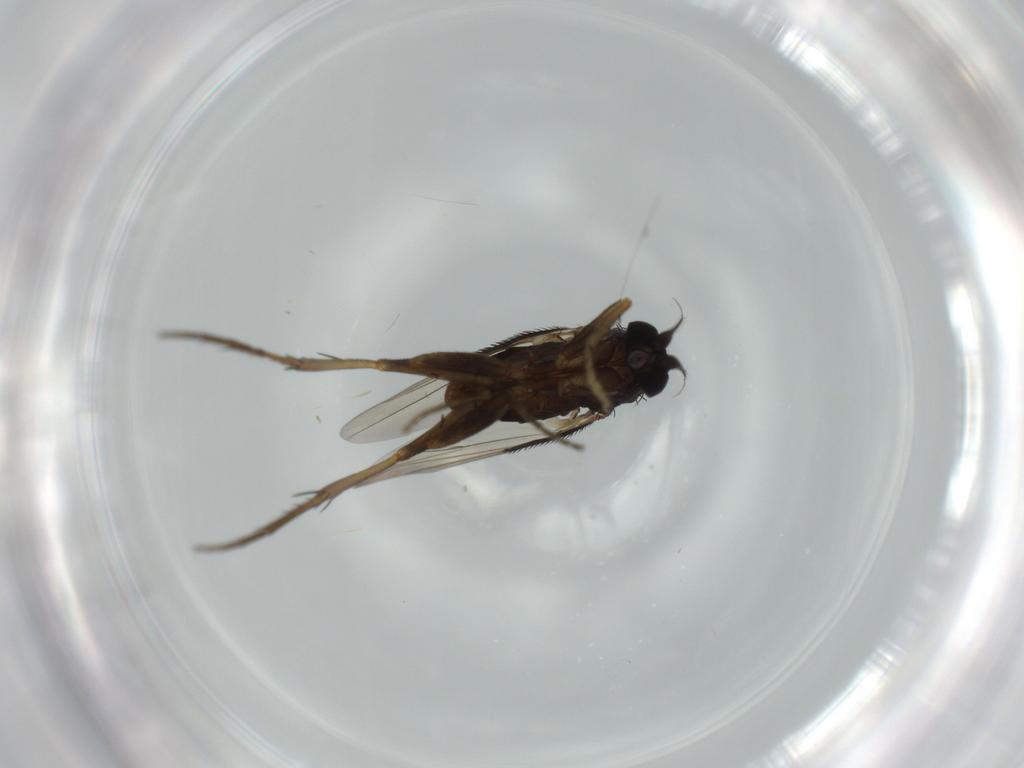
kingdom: Animalia
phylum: Arthropoda
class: Insecta
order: Diptera
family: Phoridae
